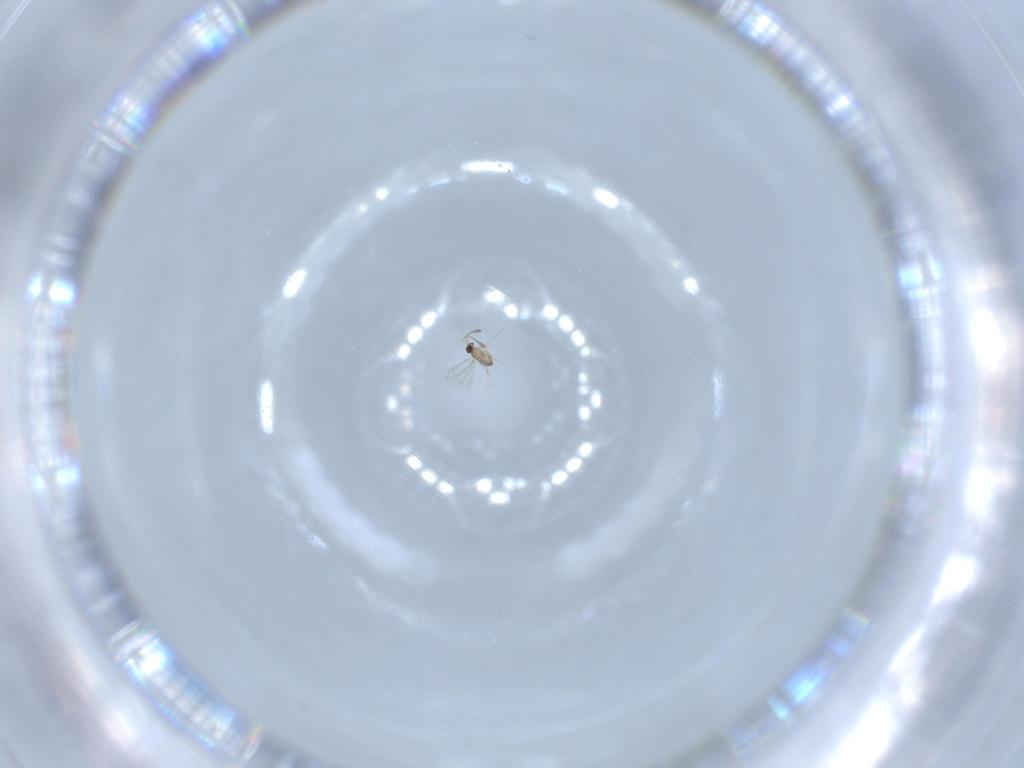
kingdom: Animalia
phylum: Arthropoda
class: Insecta
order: Hymenoptera
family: Mymaridae
